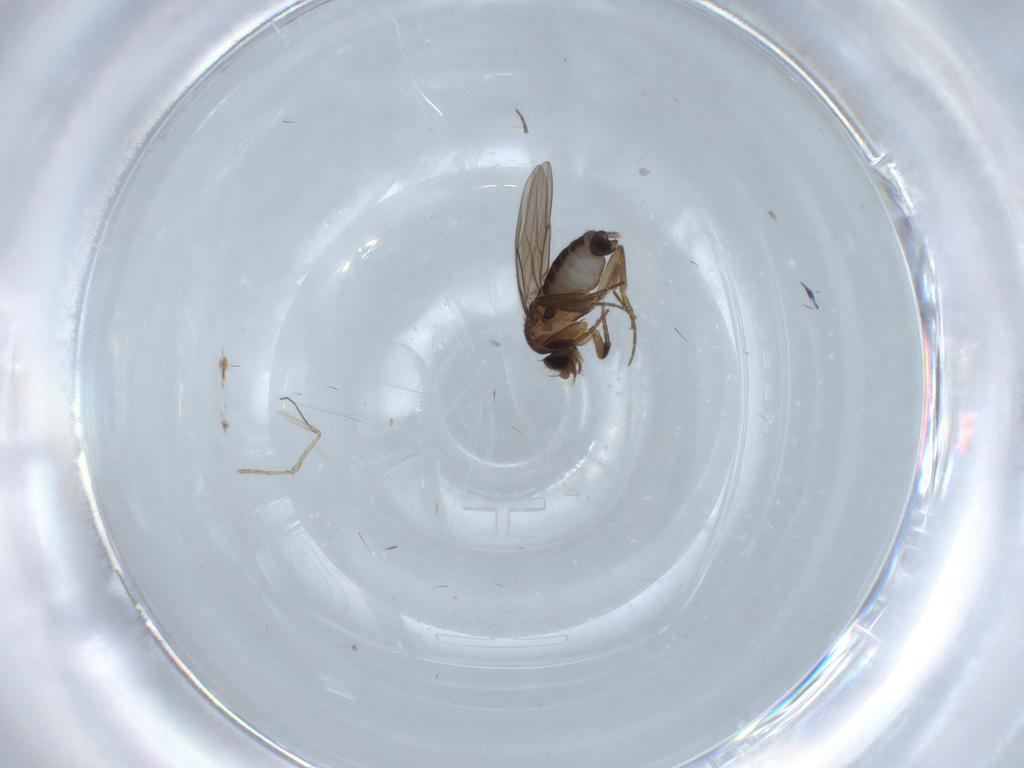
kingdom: Animalia
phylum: Arthropoda
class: Insecta
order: Diptera
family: Phoridae
